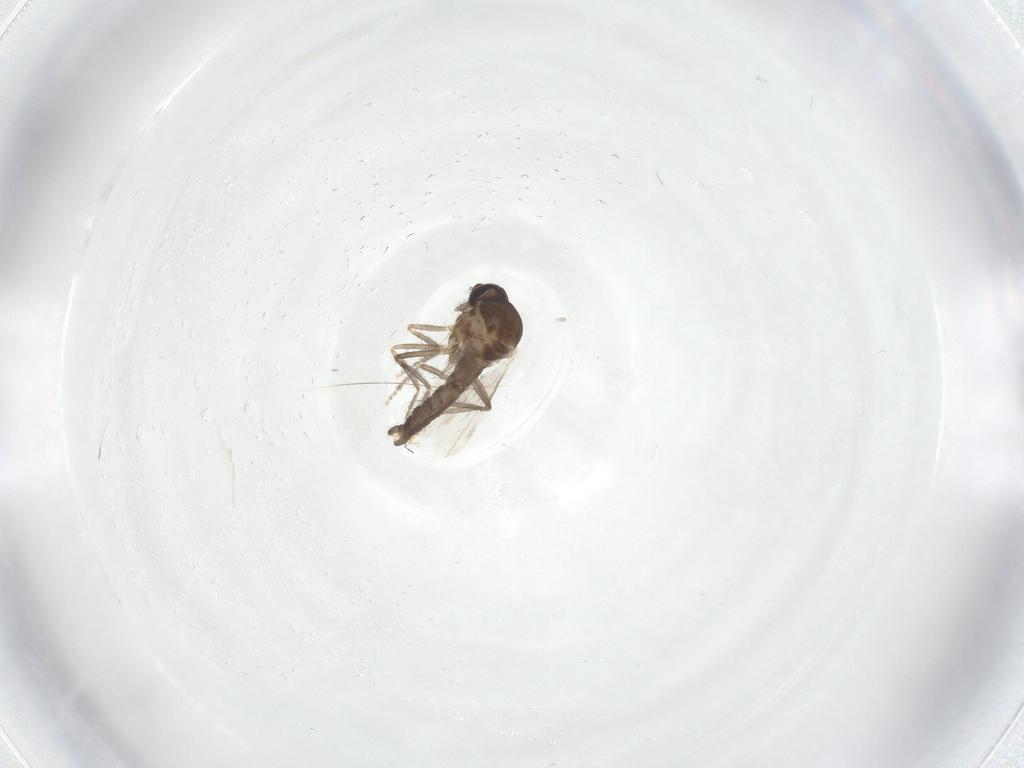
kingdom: Animalia
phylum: Arthropoda
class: Insecta
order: Diptera
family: Ceratopogonidae
